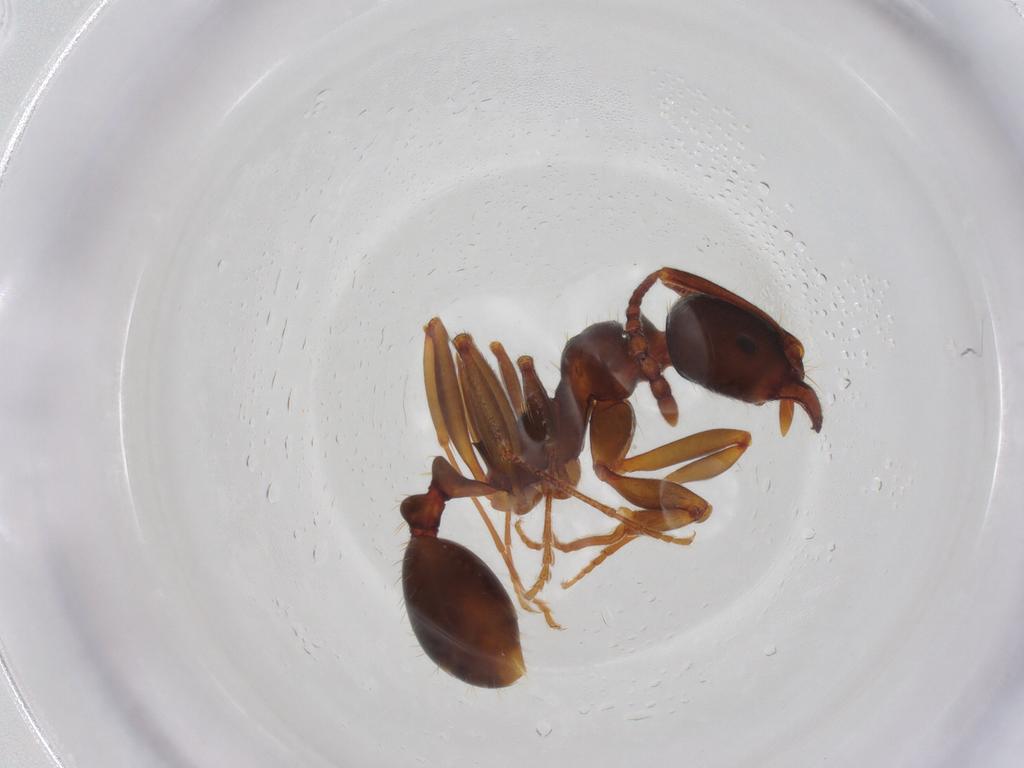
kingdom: Animalia
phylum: Arthropoda
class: Insecta
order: Hymenoptera
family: Formicidae
